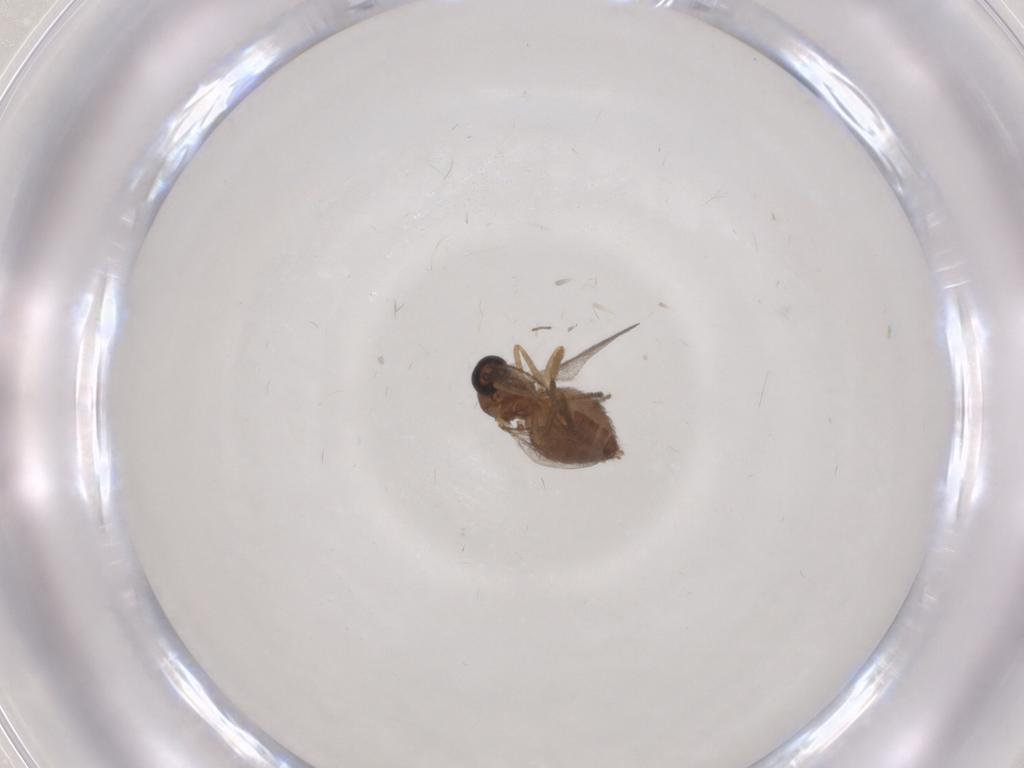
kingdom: Animalia
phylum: Arthropoda
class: Insecta
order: Diptera
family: Ceratopogonidae
